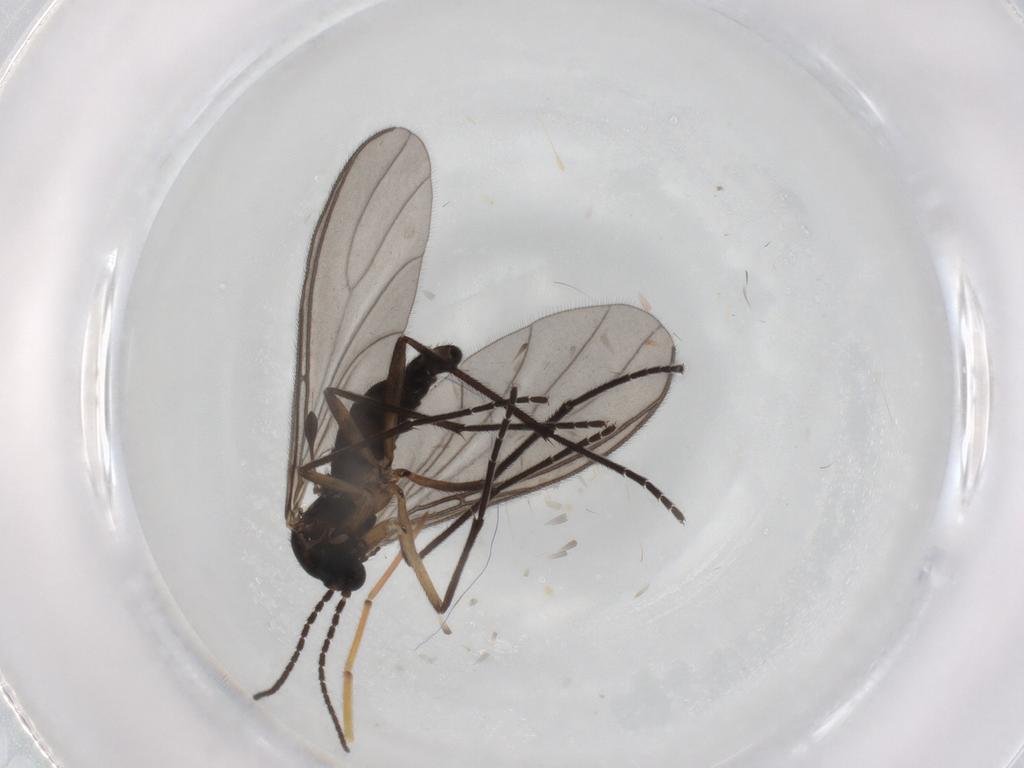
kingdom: Animalia
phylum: Arthropoda
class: Insecta
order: Diptera
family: Sciaridae
